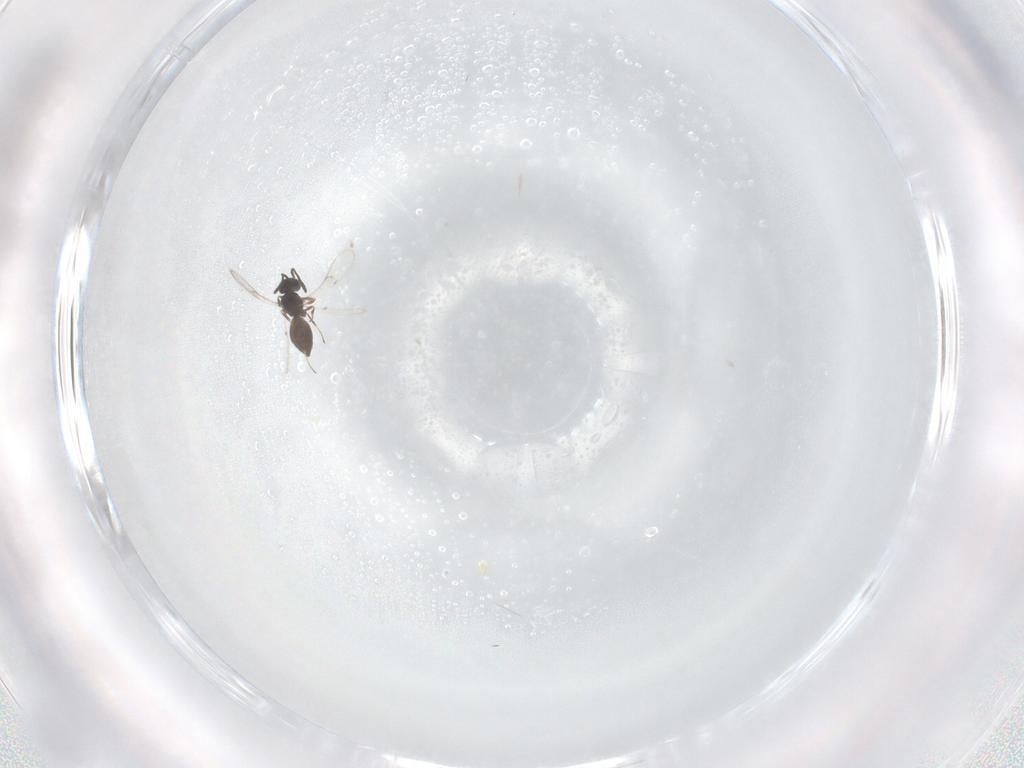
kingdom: Animalia
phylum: Arthropoda
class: Insecta
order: Hymenoptera
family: Scelionidae
